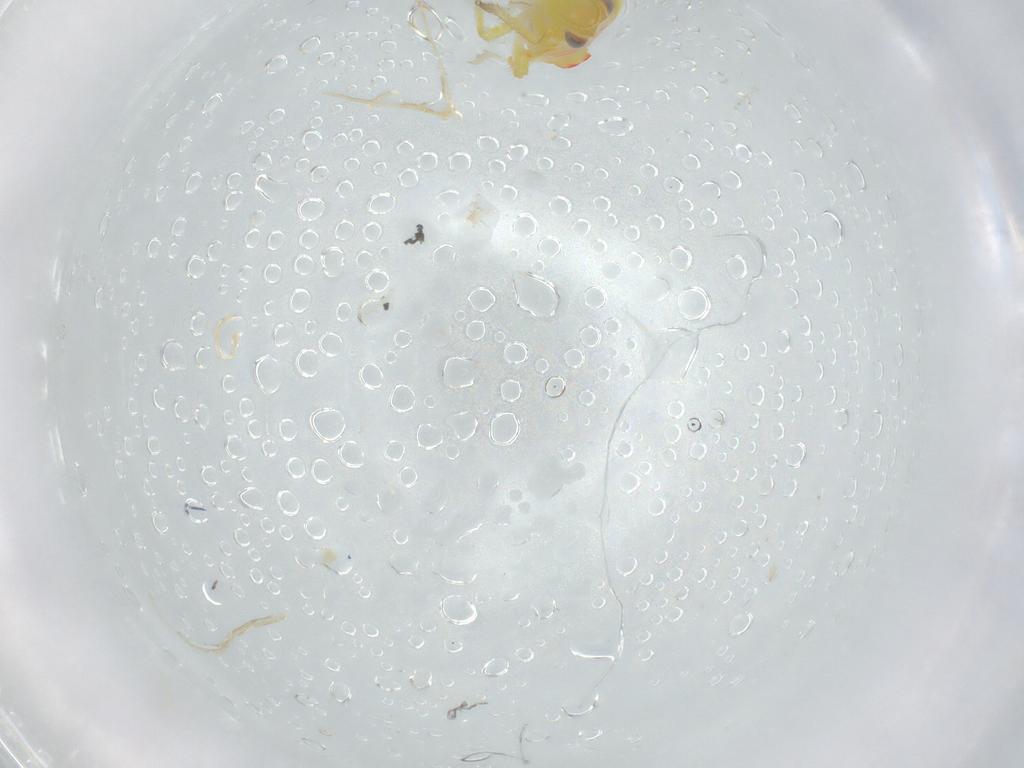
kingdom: Animalia
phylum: Arthropoda
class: Insecta
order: Hemiptera
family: Tropiduchidae
